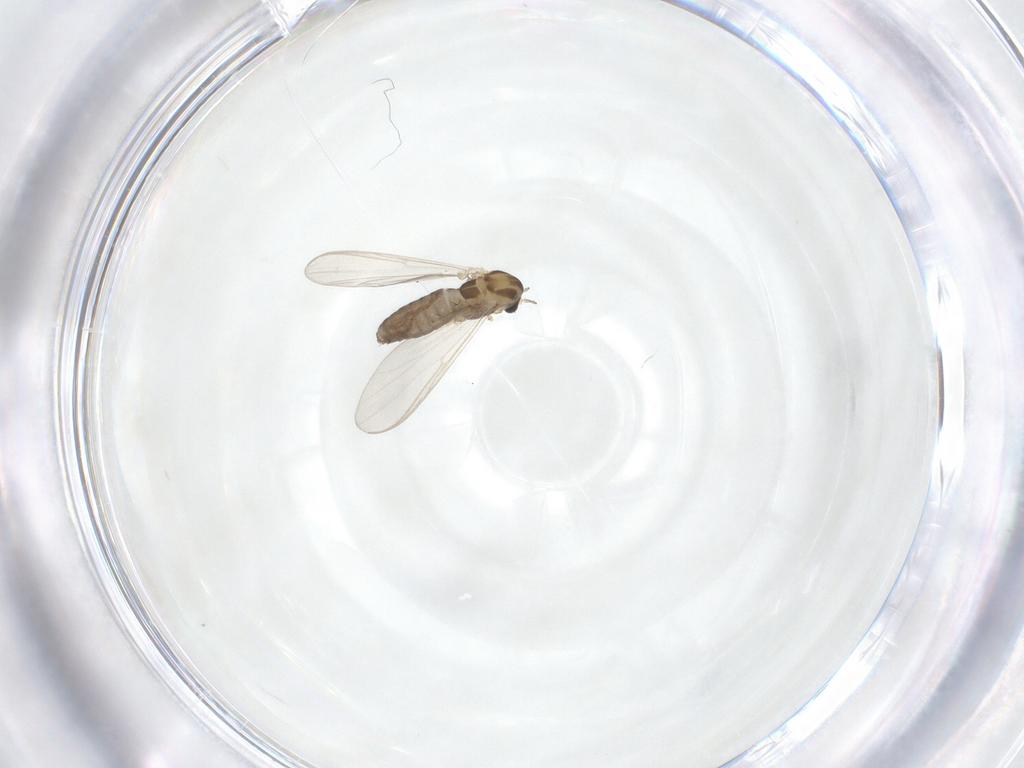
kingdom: Animalia
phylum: Arthropoda
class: Insecta
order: Diptera
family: Chironomidae
